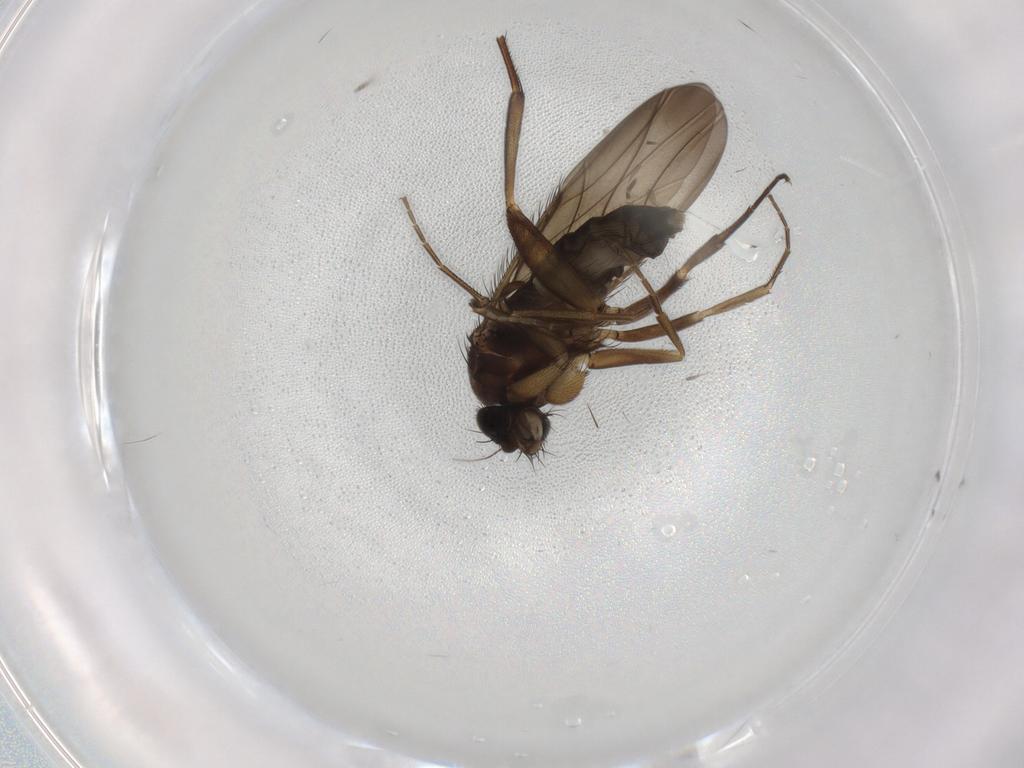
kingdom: Animalia
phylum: Arthropoda
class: Insecta
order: Diptera
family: Phoridae
